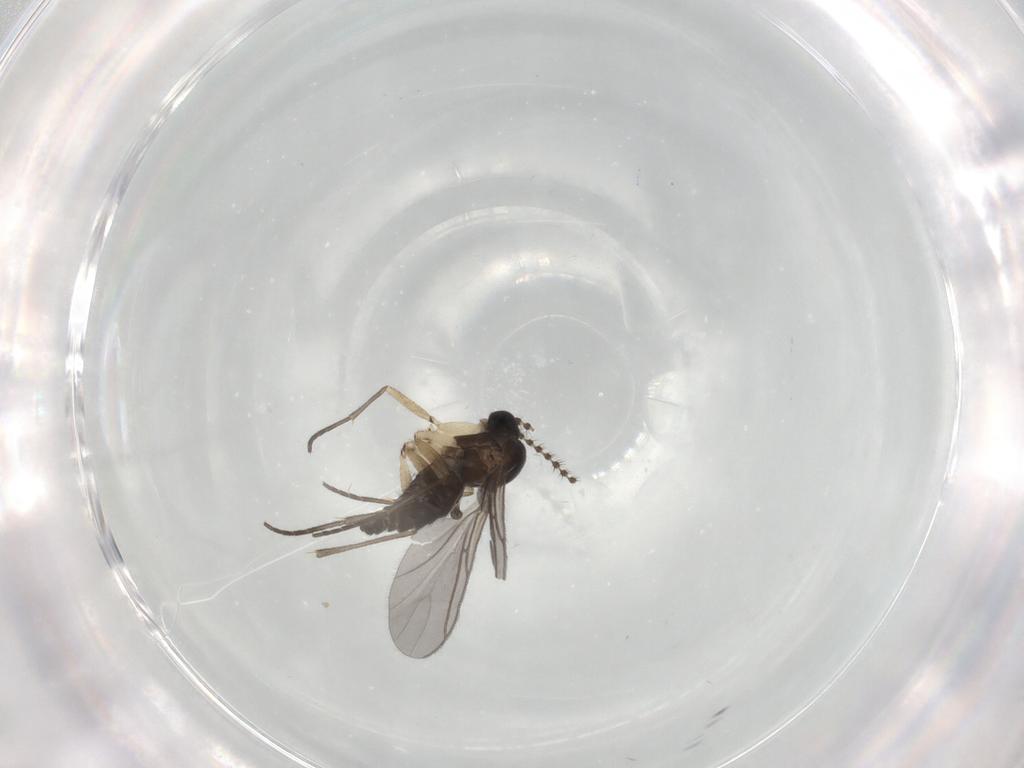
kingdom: Animalia
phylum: Arthropoda
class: Insecta
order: Diptera
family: Sciaridae
